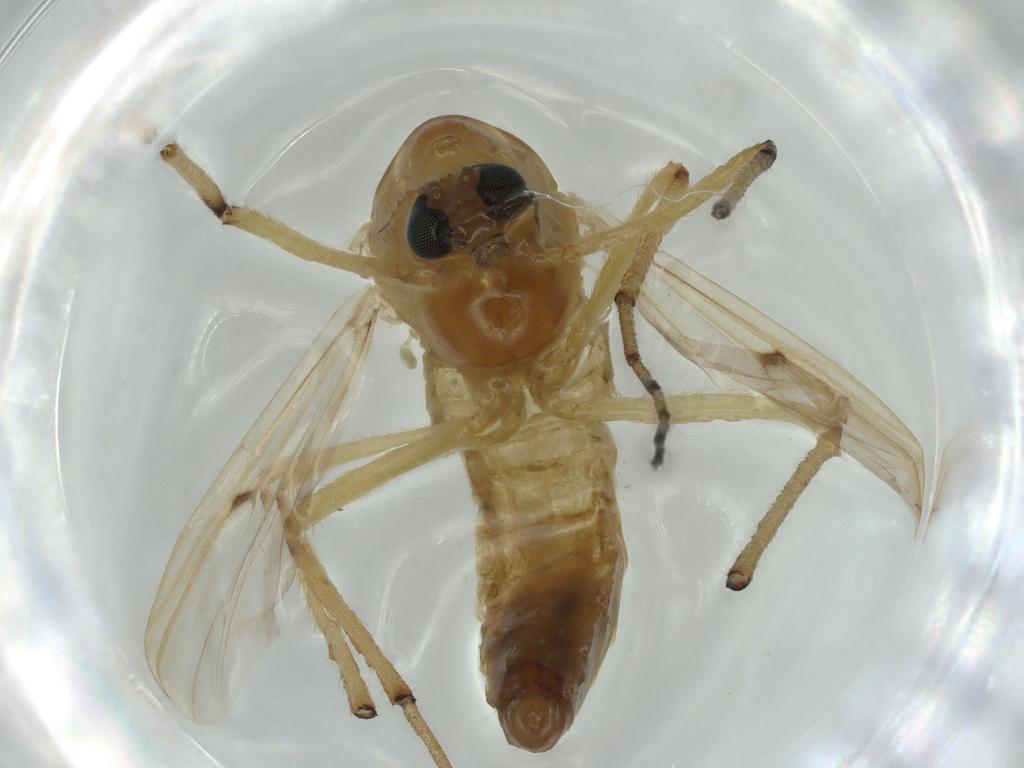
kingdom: Animalia
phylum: Arthropoda
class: Insecta
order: Diptera
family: Chironomidae
